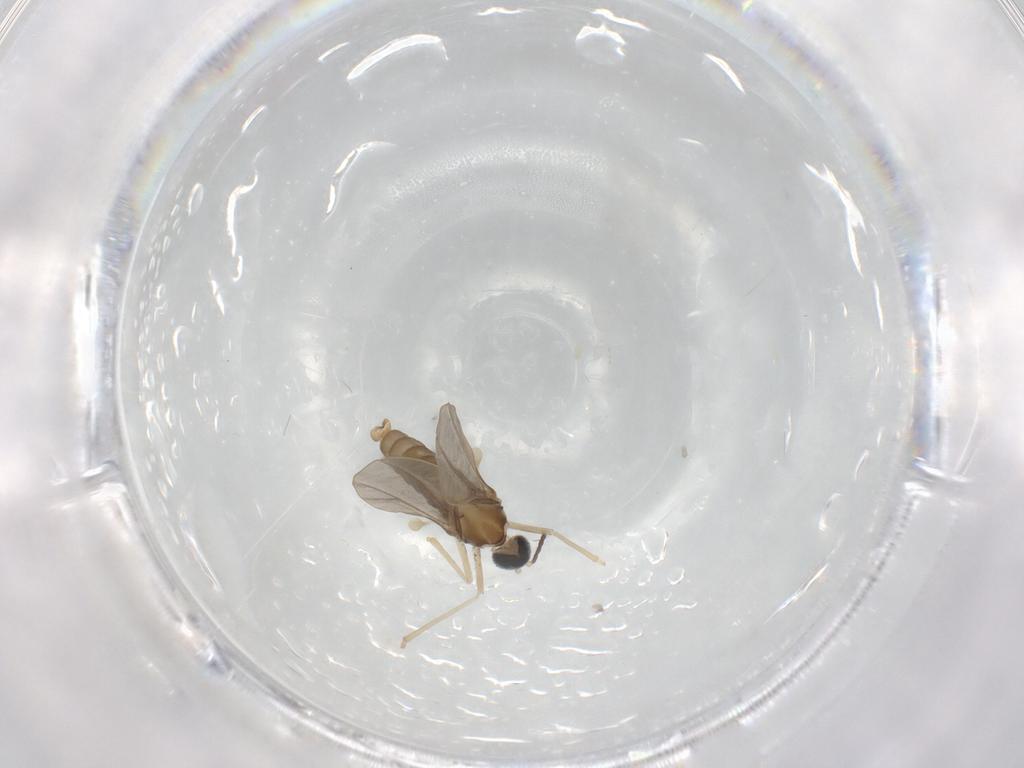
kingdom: Animalia
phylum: Arthropoda
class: Insecta
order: Diptera
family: Cecidomyiidae
